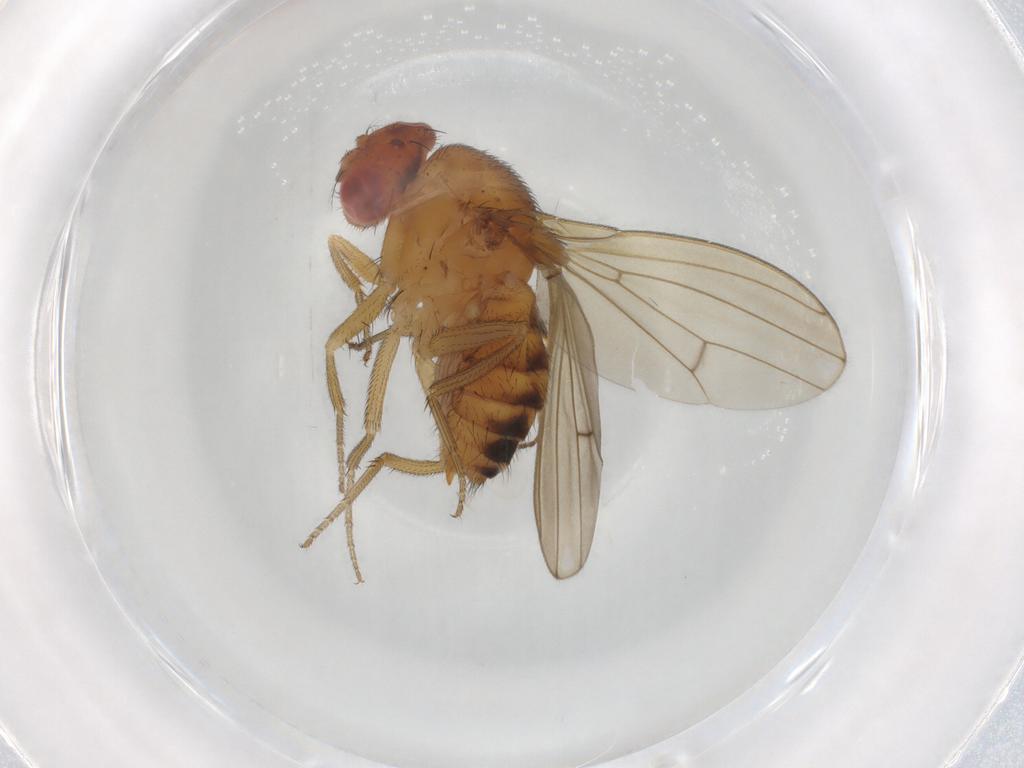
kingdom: Animalia
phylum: Arthropoda
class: Insecta
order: Diptera
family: Drosophilidae
